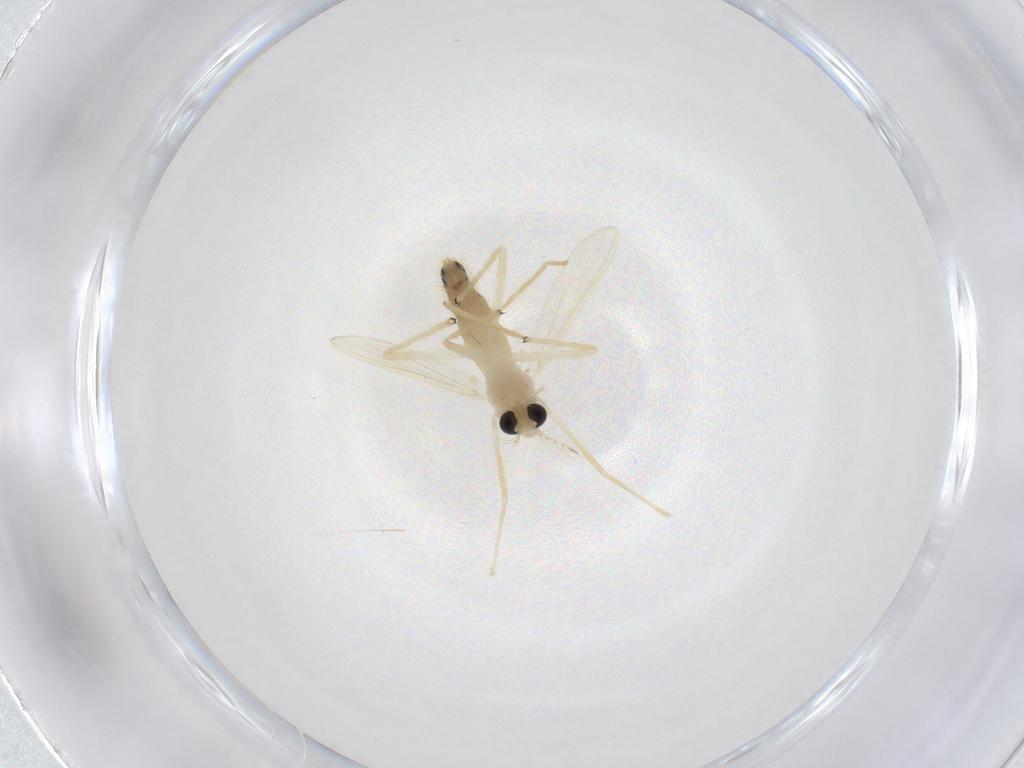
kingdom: Animalia
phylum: Arthropoda
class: Insecta
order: Diptera
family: Chironomidae
